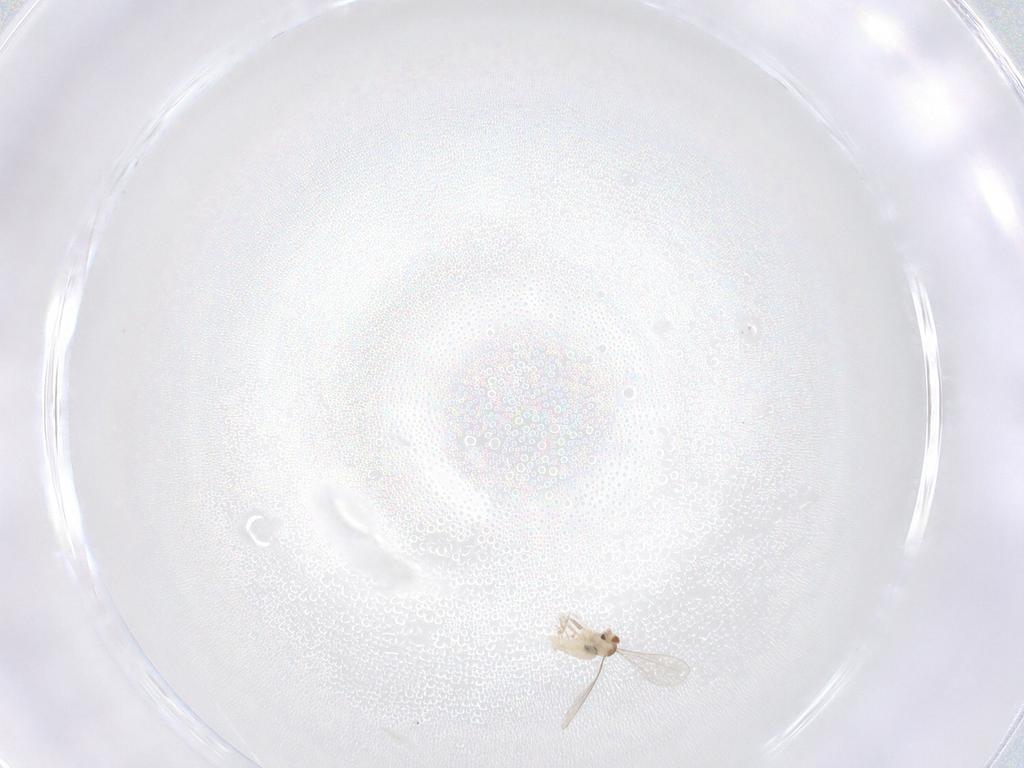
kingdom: Animalia
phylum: Arthropoda
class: Insecta
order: Diptera
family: Cecidomyiidae
